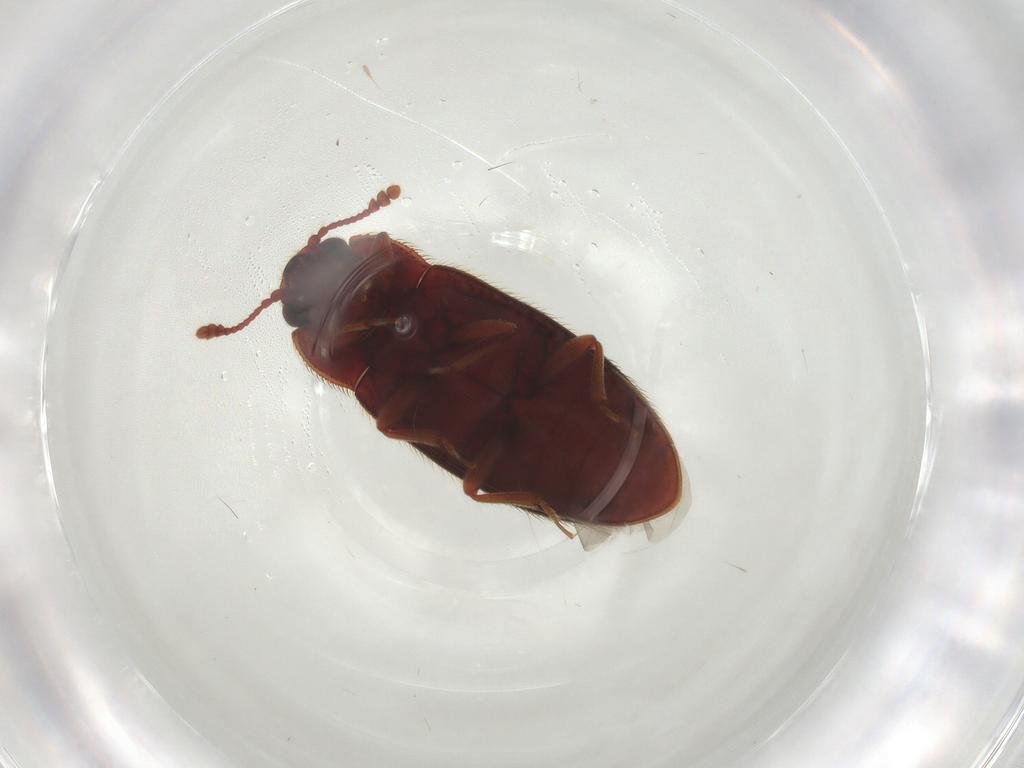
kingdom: Animalia
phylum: Arthropoda
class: Insecta
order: Coleoptera
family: Biphyllidae
